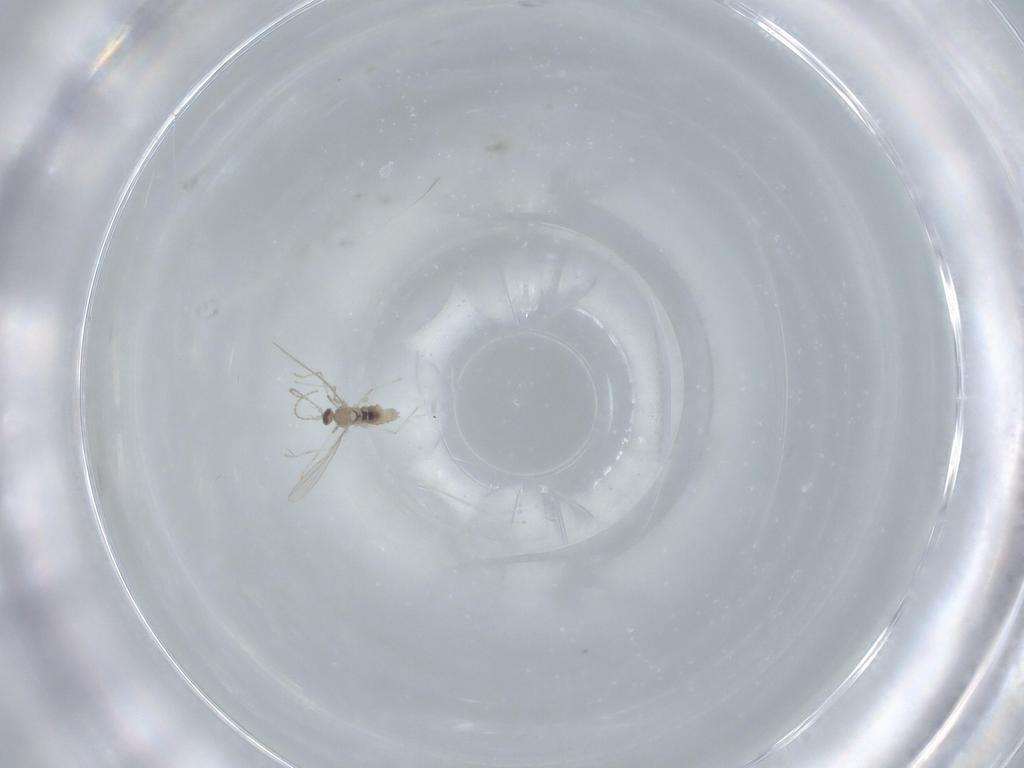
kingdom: Animalia
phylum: Arthropoda
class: Insecta
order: Diptera
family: Cecidomyiidae
